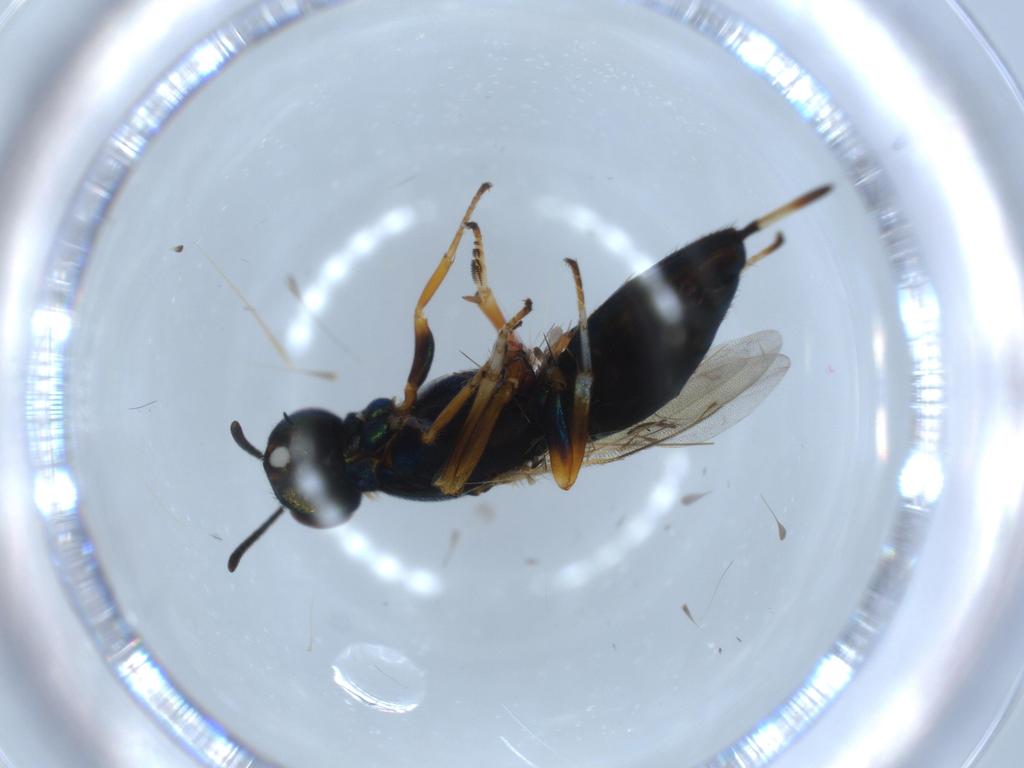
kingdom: Animalia
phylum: Arthropoda
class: Insecta
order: Hymenoptera
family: Eupelmidae
